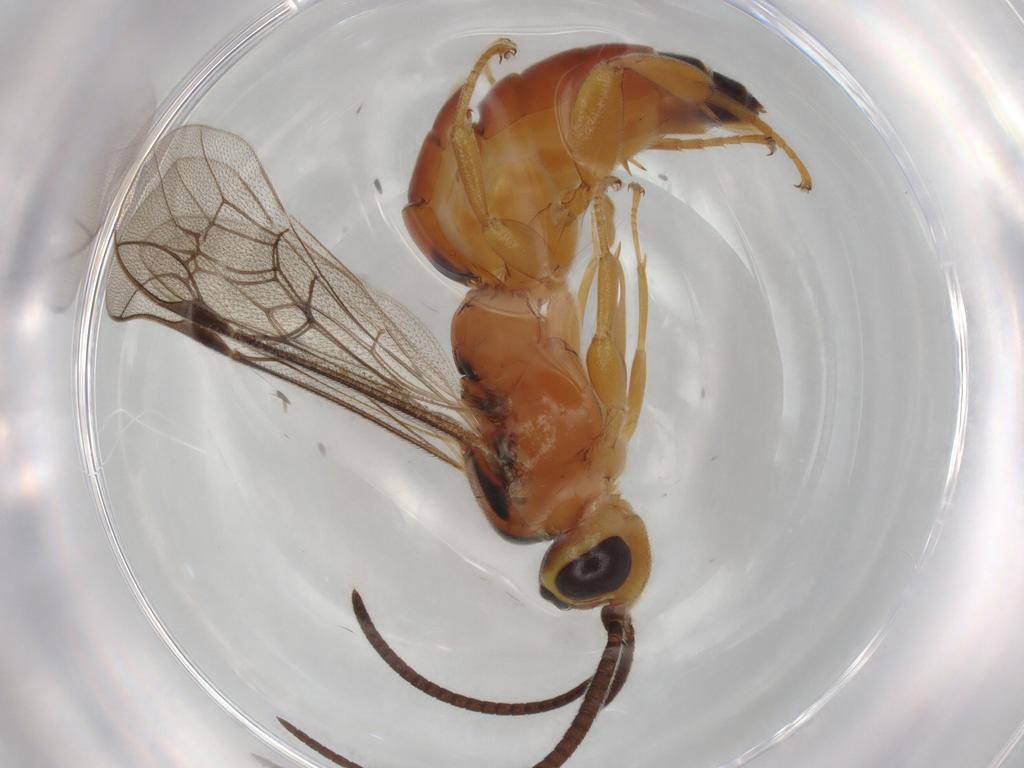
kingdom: Animalia
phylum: Arthropoda
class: Insecta
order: Hymenoptera
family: Ichneumonidae
